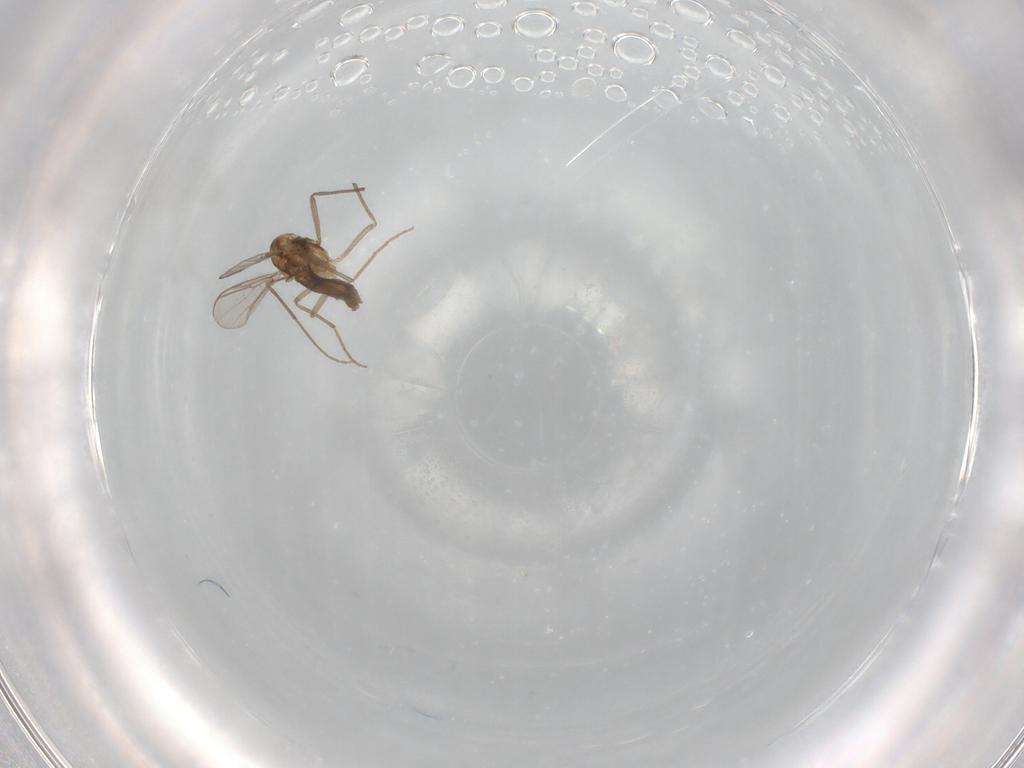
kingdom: Animalia
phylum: Arthropoda
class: Insecta
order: Diptera
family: Chironomidae
